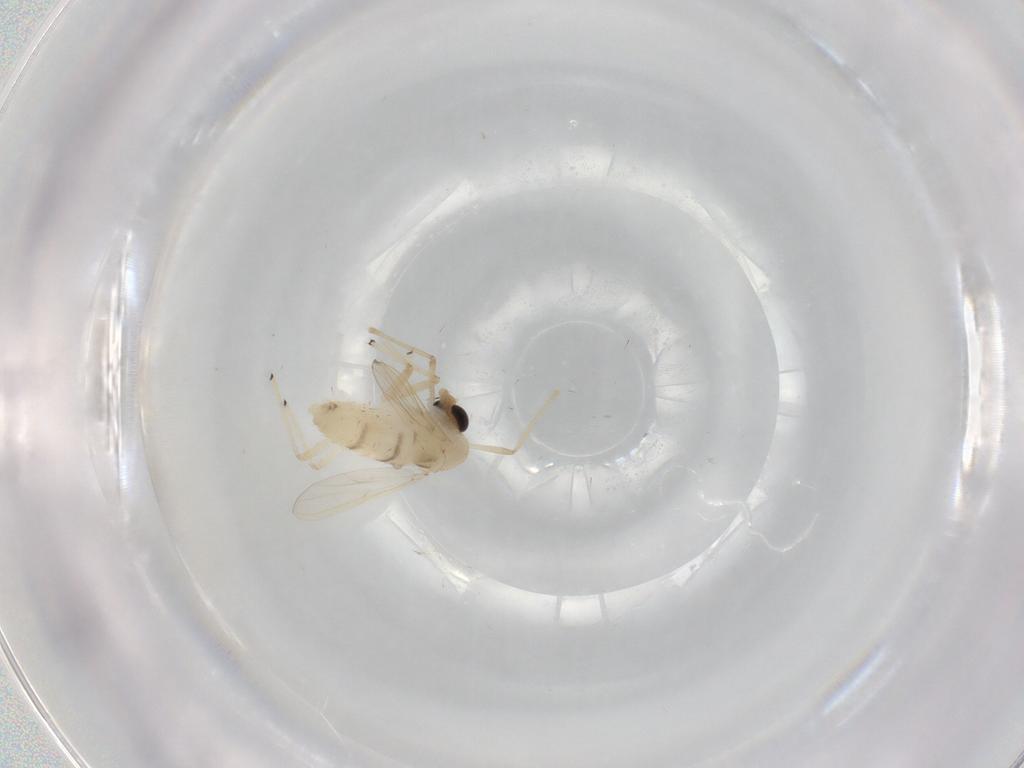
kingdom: Animalia
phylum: Arthropoda
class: Insecta
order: Diptera
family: Chironomidae
